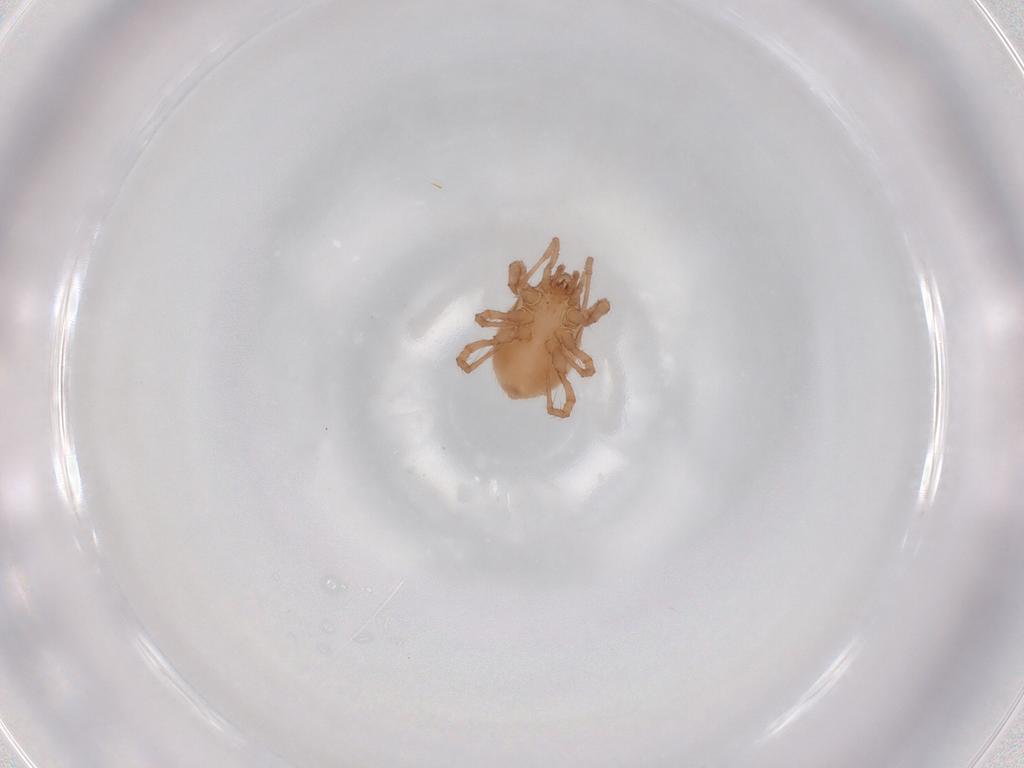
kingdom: Animalia
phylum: Arthropoda
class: Arachnida
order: Mesostigmata
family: Parasitidae
